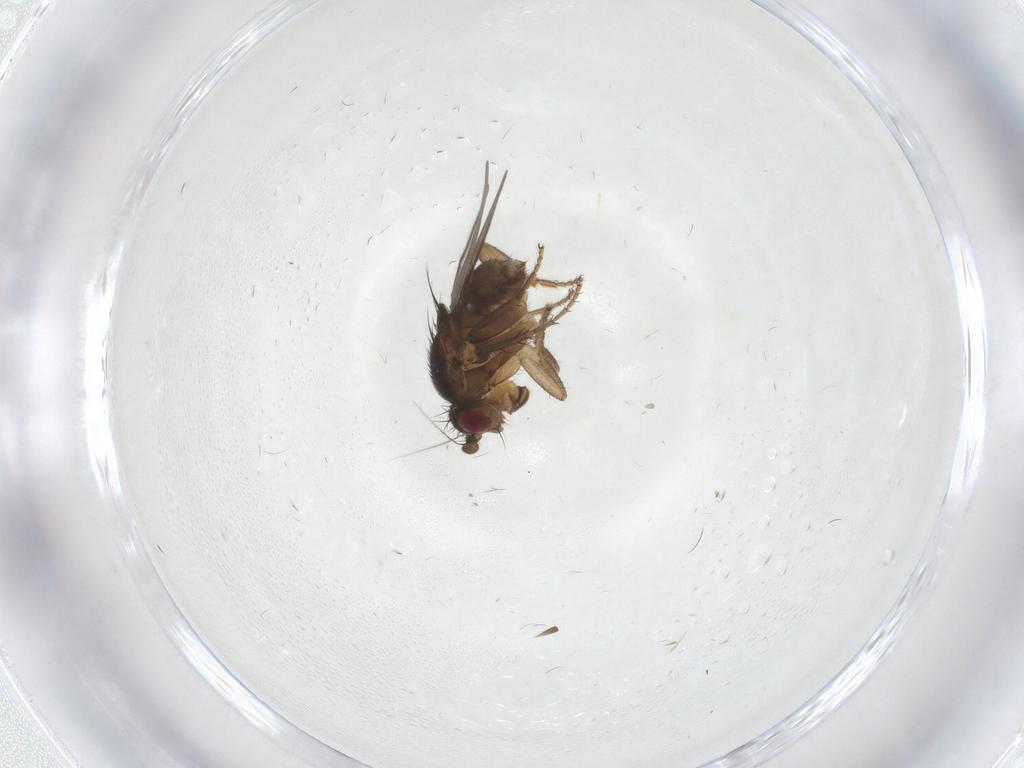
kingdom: Animalia
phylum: Arthropoda
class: Insecta
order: Diptera
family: Sphaeroceridae
